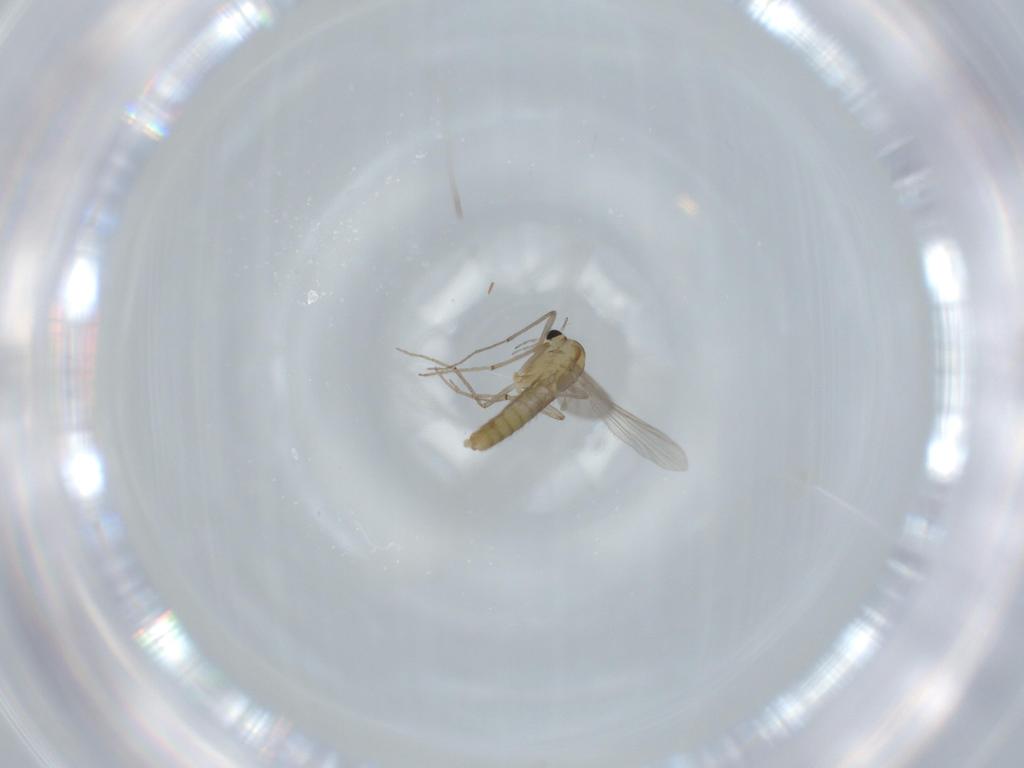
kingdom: Animalia
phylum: Arthropoda
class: Insecta
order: Diptera
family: Chironomidae
